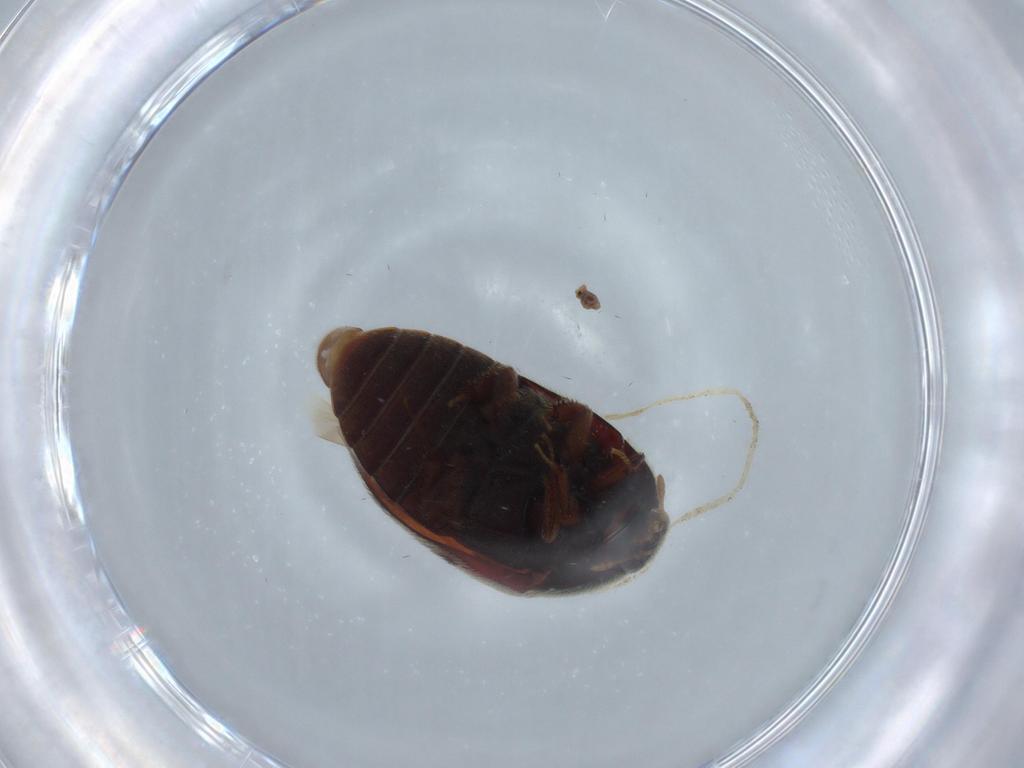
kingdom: Animalia
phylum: Arthropoda
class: Insecta
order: Coleoptera
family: Dermestidae
